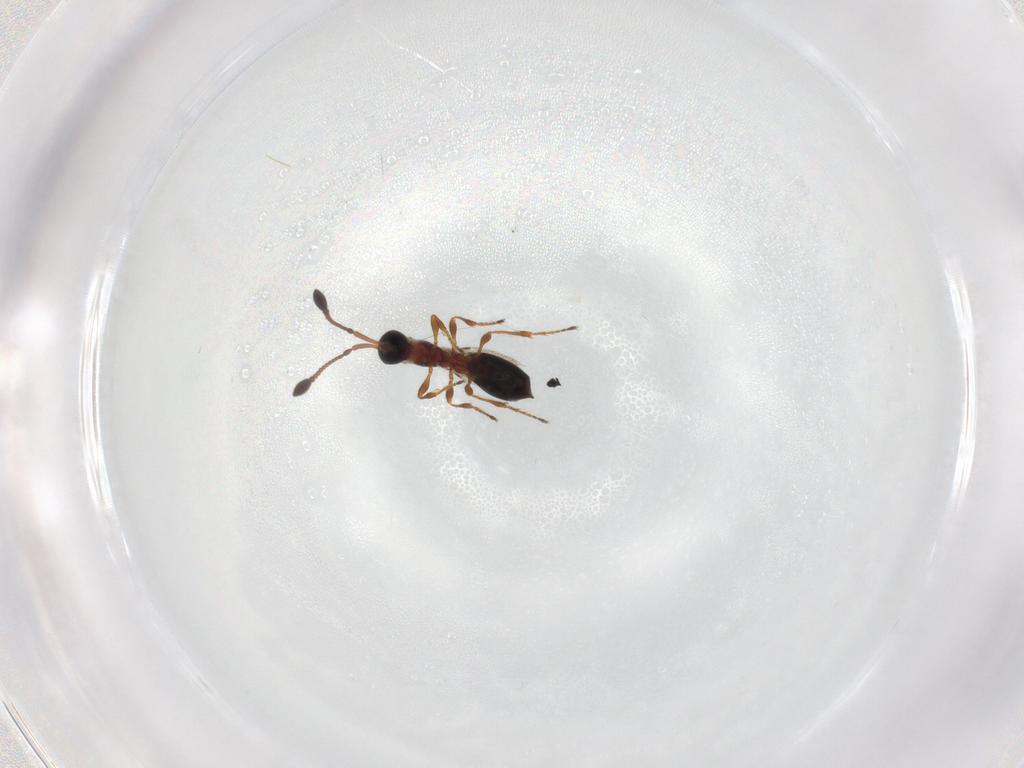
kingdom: Animalia
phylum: Arthropoda
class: Insecta
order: Hymenoptera
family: Diapriidae
